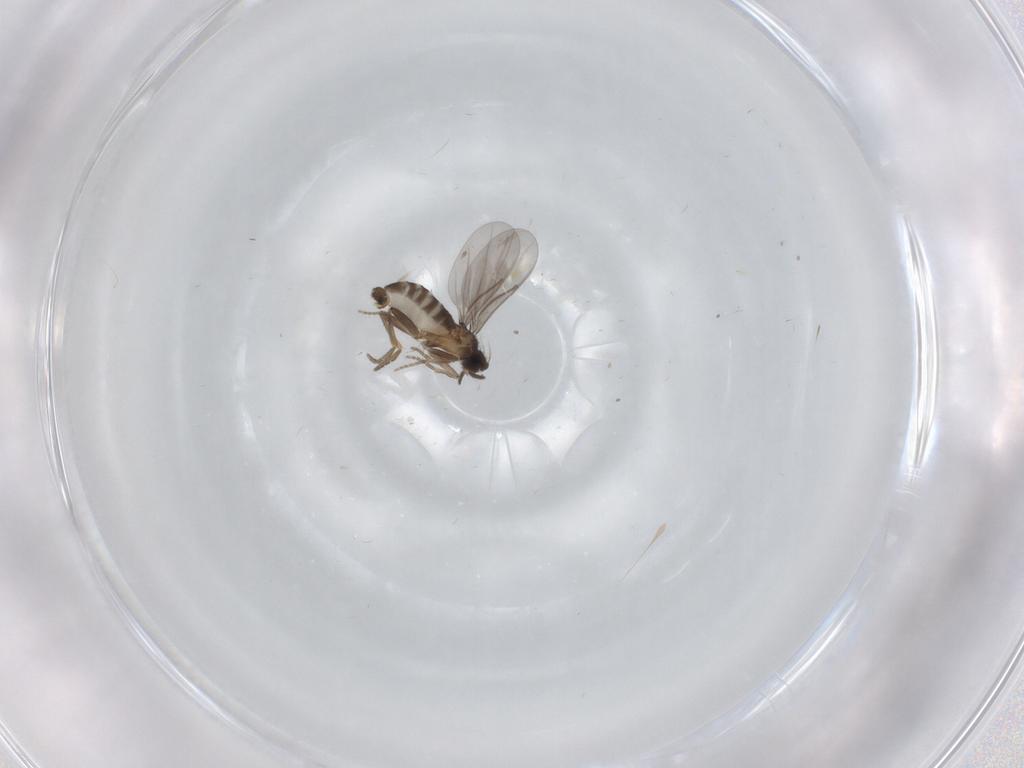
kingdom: Animalia
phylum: Arthropoda
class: Insecta
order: Diptera
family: Phoridae
